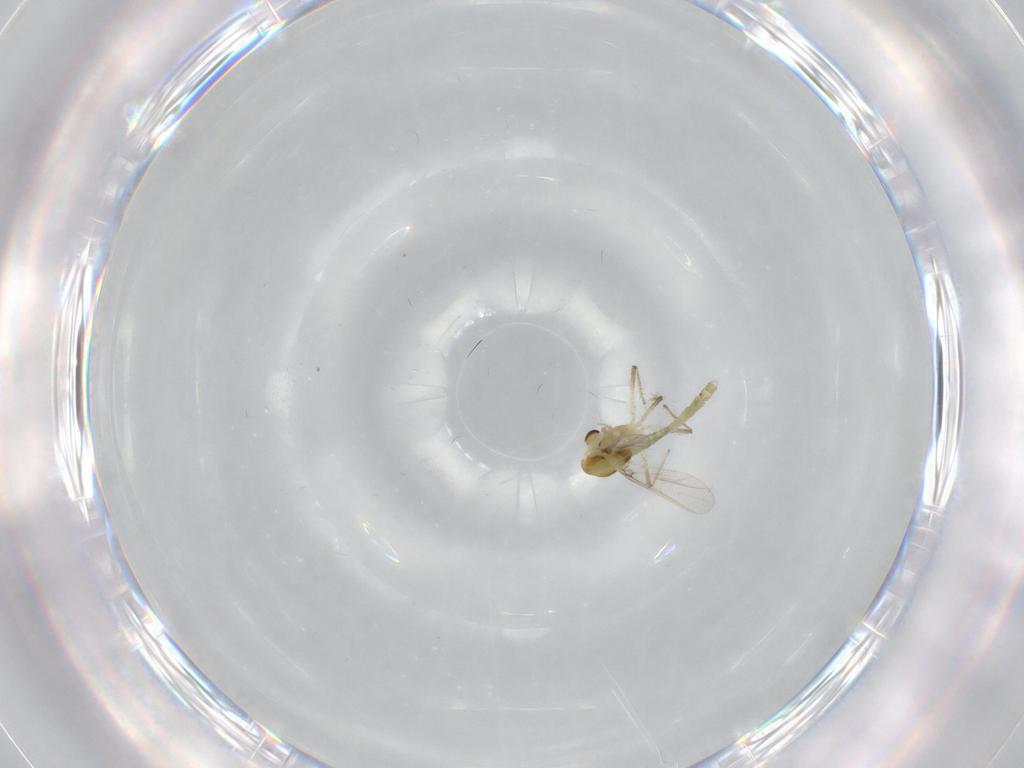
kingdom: Animalia
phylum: Arthropoda
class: Insecta
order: Diptera
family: Chironomidae
